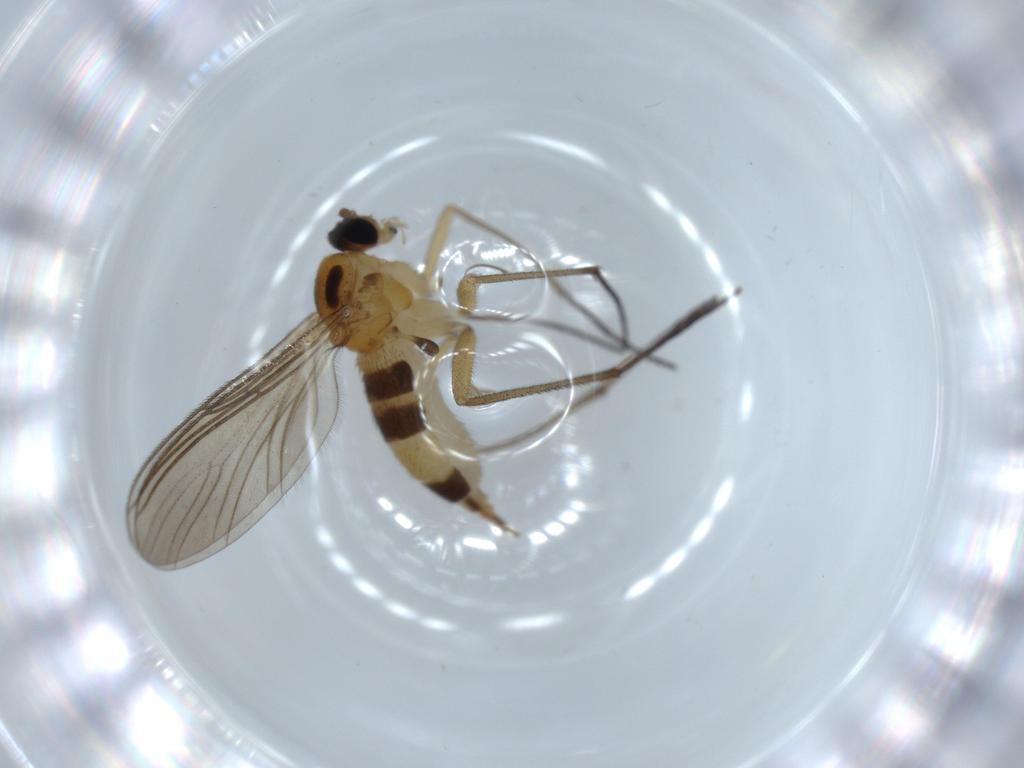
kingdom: Animalia
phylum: Arthropoda
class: Insecta
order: Diptera
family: Sciaridae
